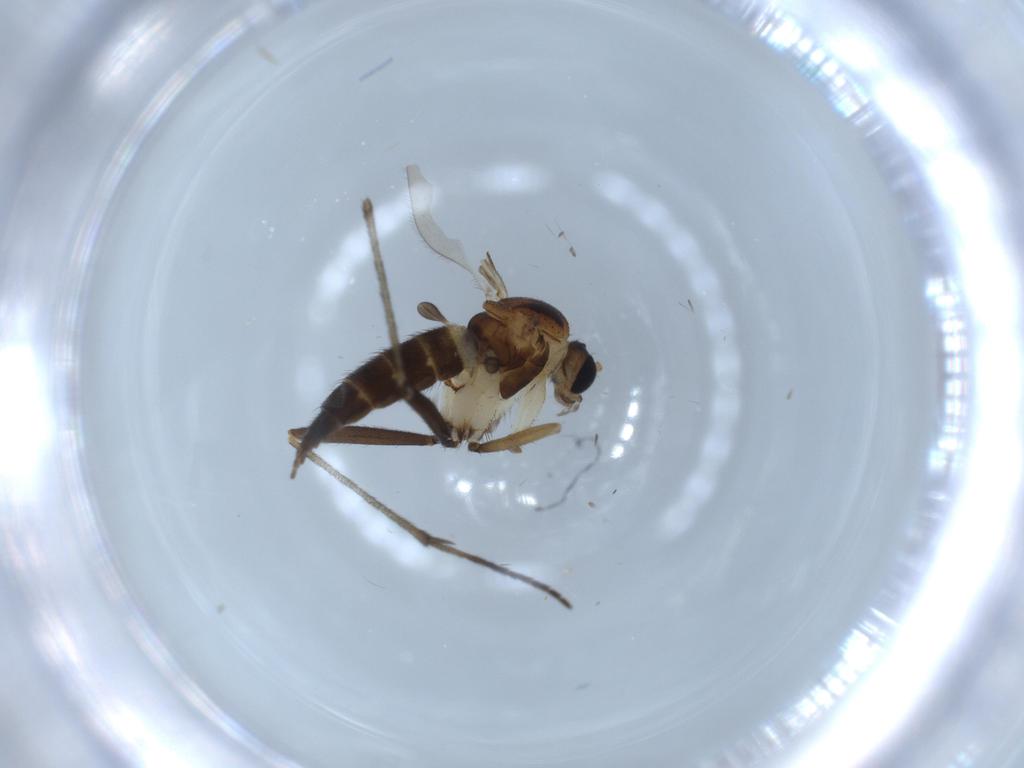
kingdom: Animalia
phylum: Arthropoda
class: Insecta
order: Diptera
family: Sciaridae
